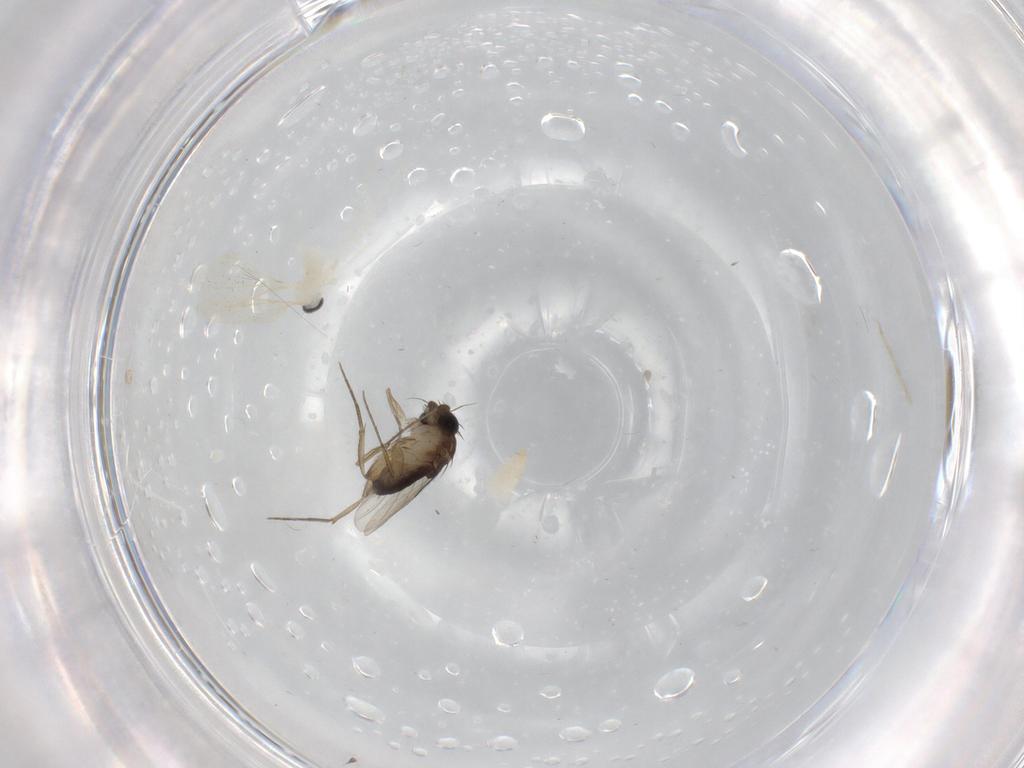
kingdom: Animalia
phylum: Arthropoda
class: Insecta
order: Diptera
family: Cecidomyiidae
